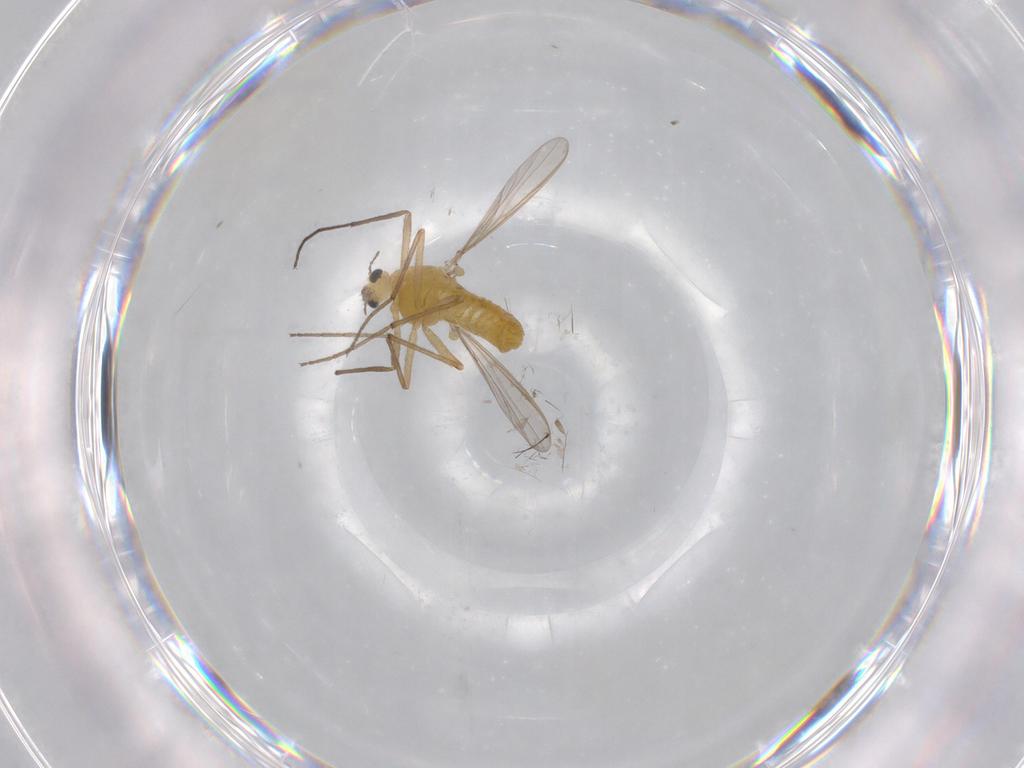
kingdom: Animalia
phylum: Arthropoda
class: Insecta
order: Diptera
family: Chironomidae
